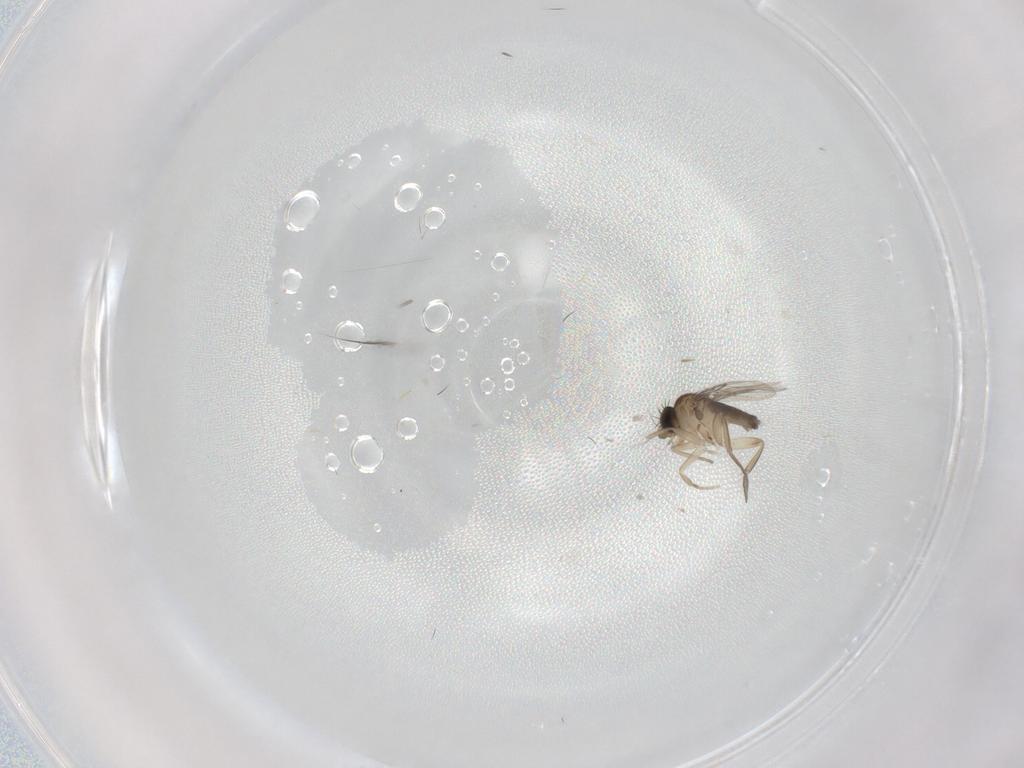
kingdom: Animalia
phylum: Arthropoda
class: Insecta
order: Diptera
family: Phoridae
